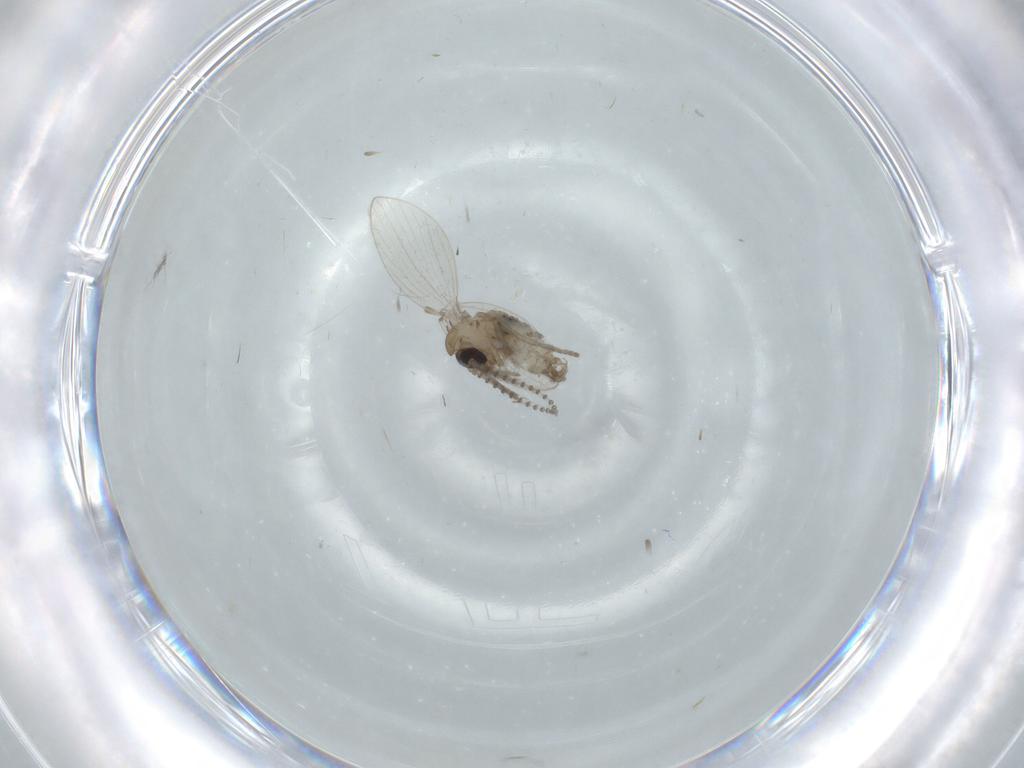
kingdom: Animalia
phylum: Arthropoda
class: Insecta
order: Diptera
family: Psychodidae
